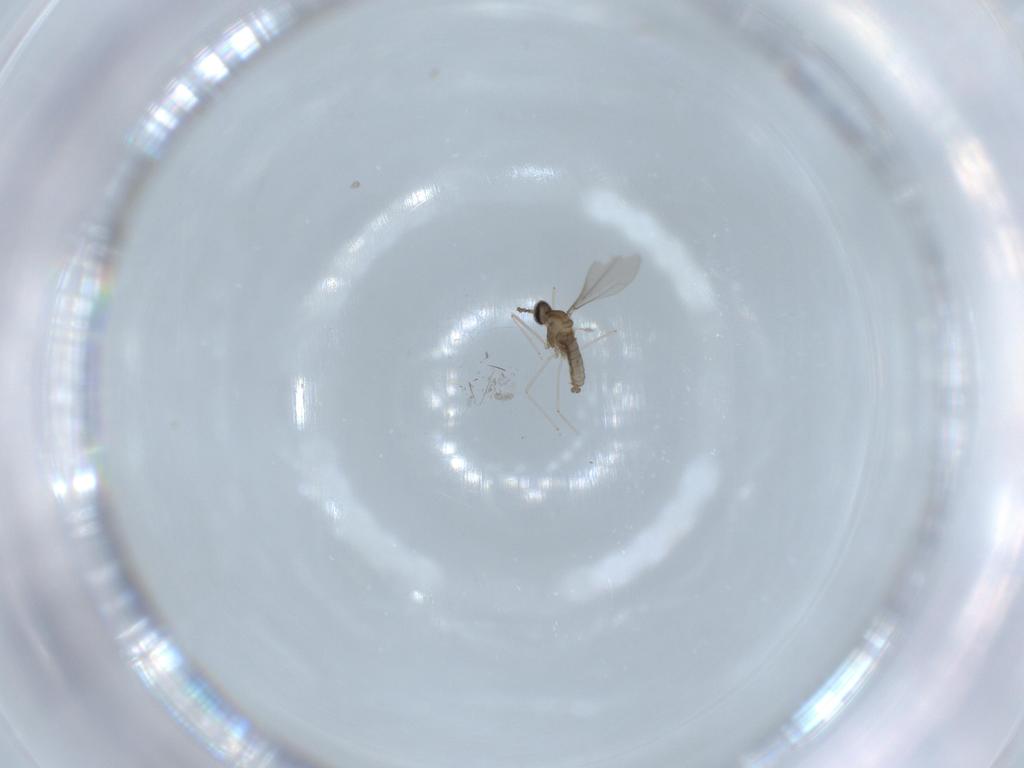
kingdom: Animalia
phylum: Arthropoda
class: Insecta
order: Diptera
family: Cecidomyiidae
